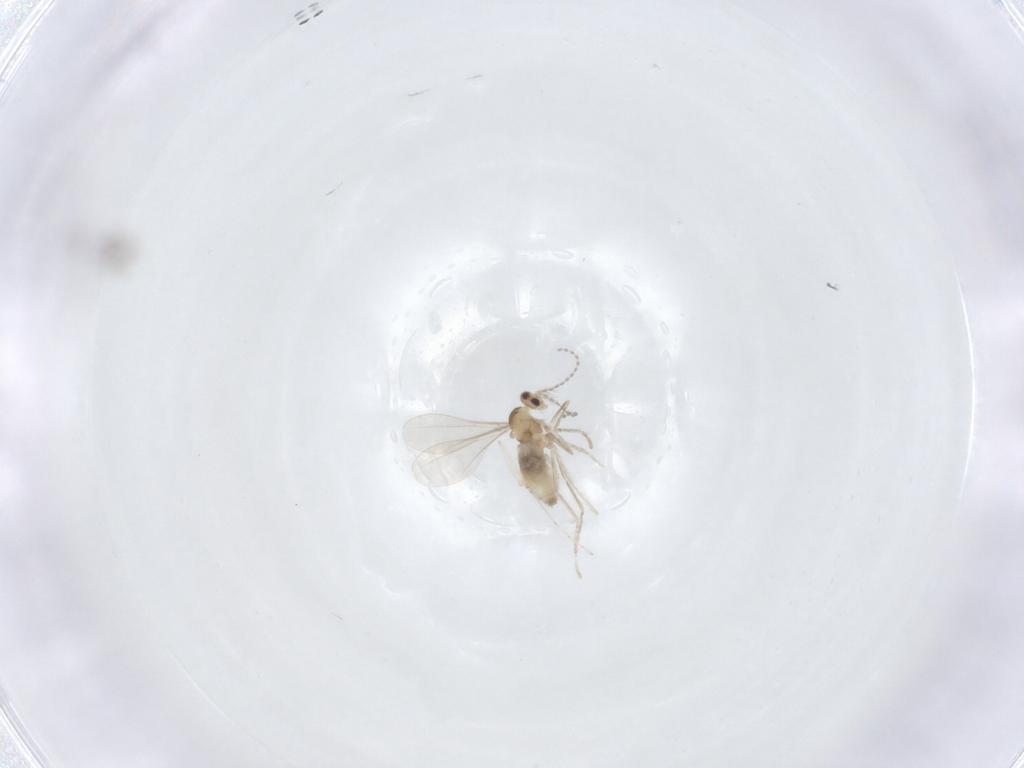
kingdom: Animalia
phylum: Arthropoda
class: Insecta
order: Diptera
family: Cecidomyiidae
